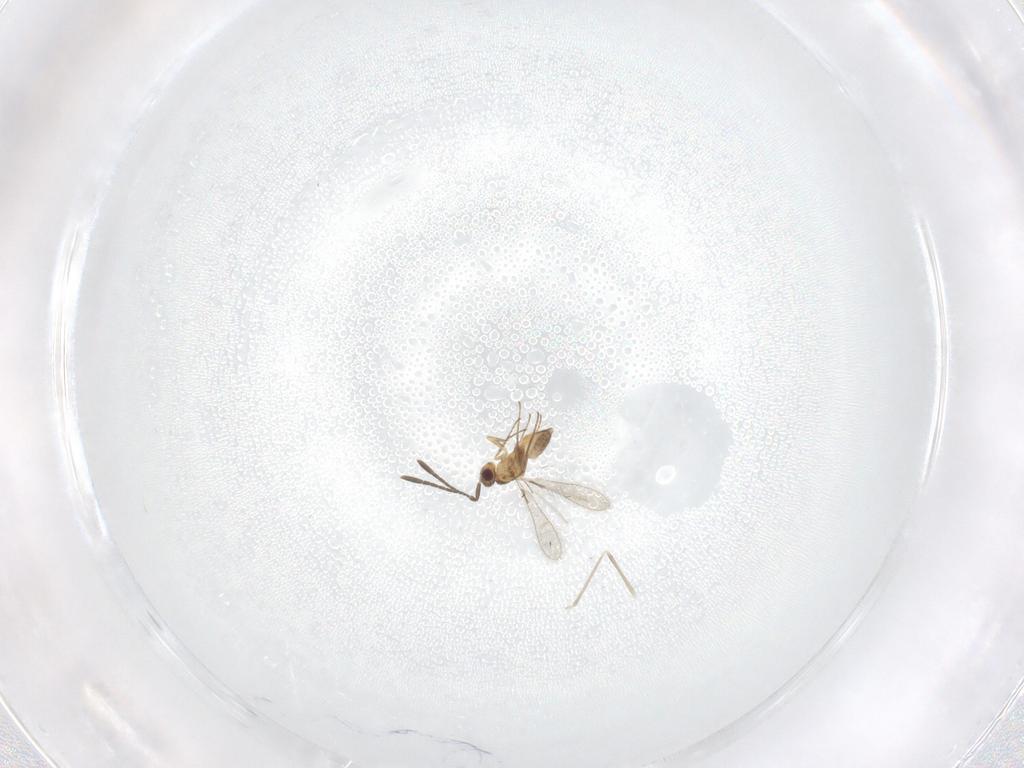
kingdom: Animalia
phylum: Arthropoda
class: Insecta
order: Hymenoptera
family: Mymaridae
